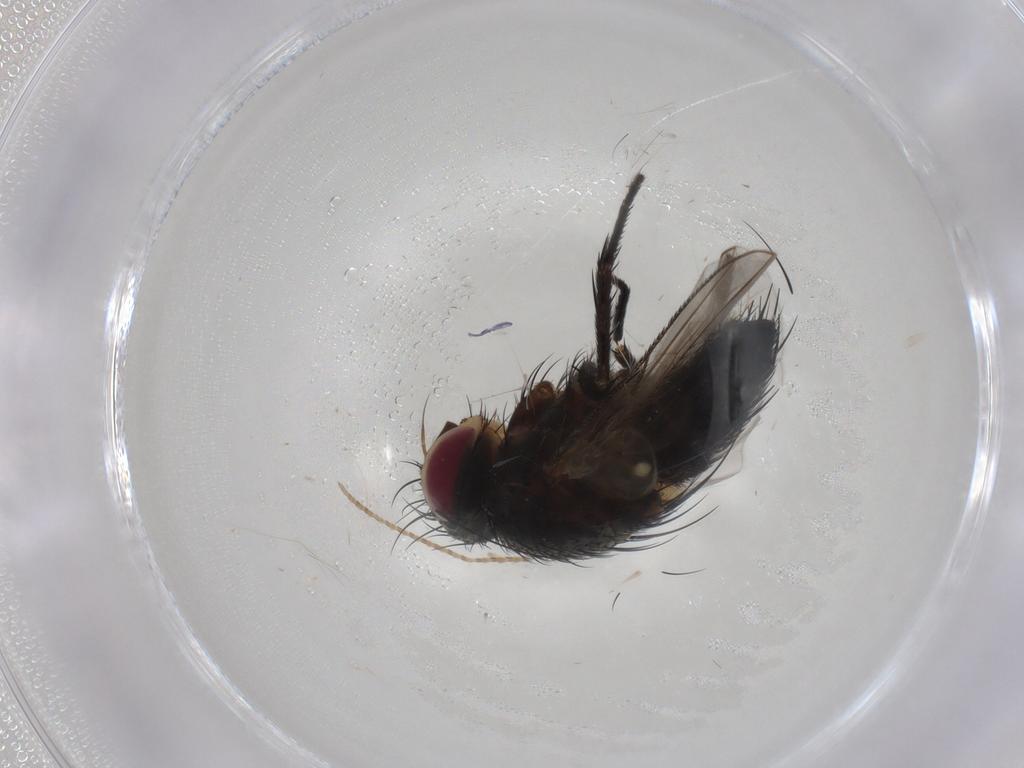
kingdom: Animalia
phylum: Arthropoda
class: Insecta
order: Diptera
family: Tachinidae
